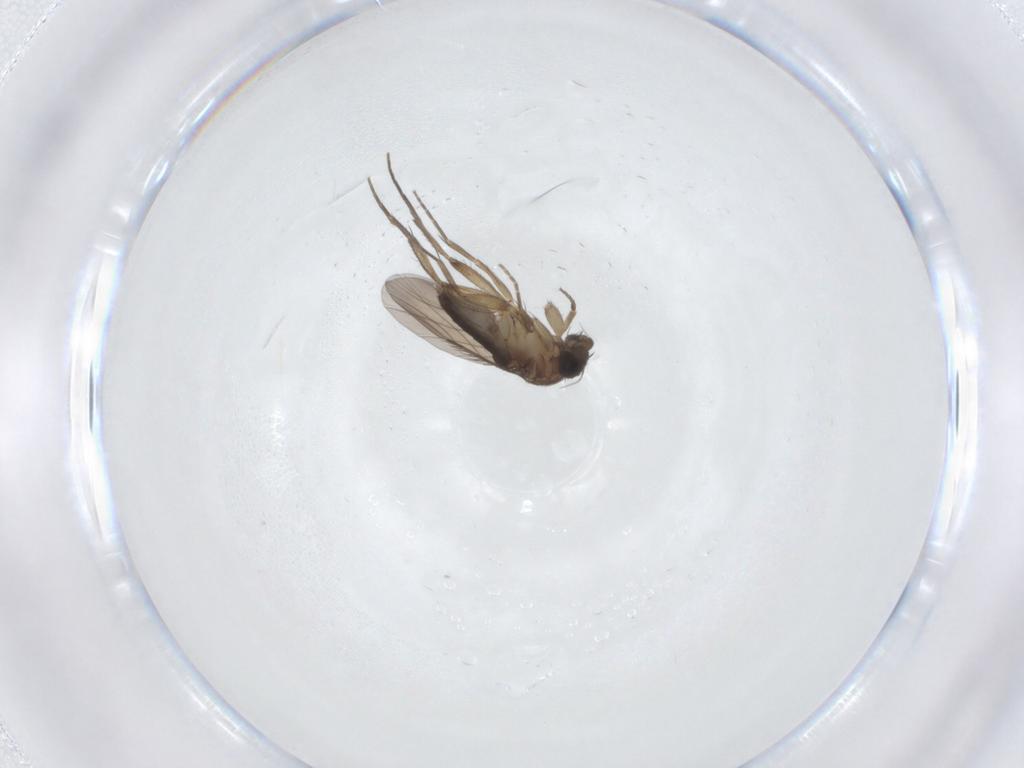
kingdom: Animalia
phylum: Arthropoda
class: Insecta
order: Diptera
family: Phoridae
